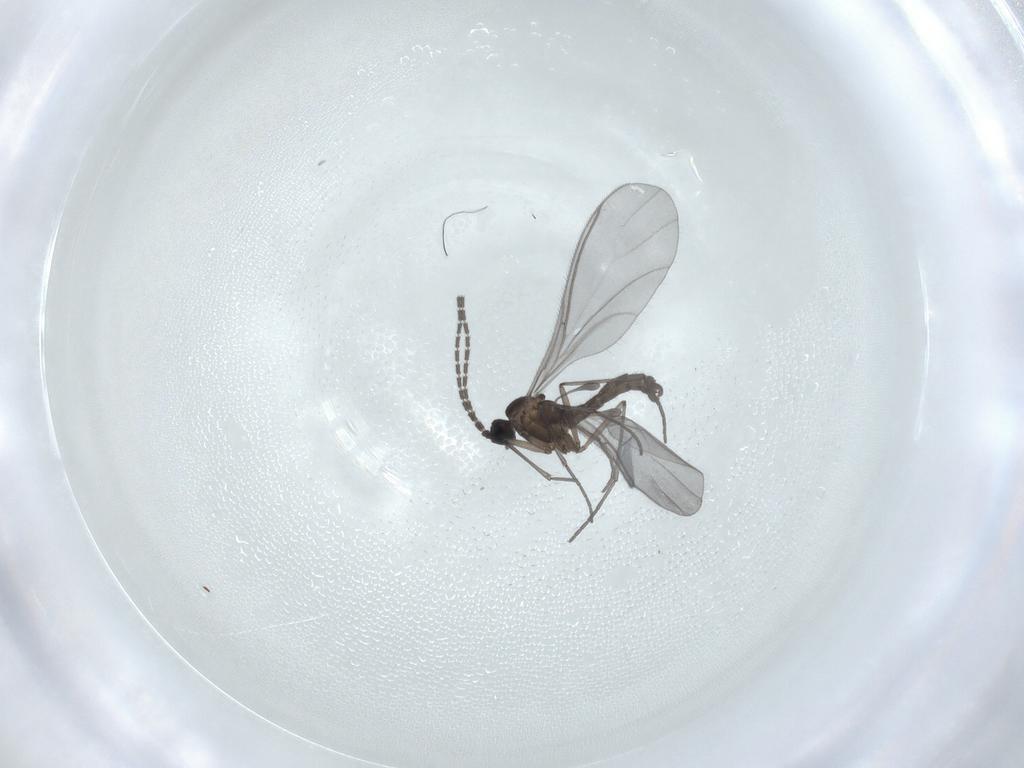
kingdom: Animalia
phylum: Arthropoda
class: Insecta
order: Diptera
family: Sciaridae
